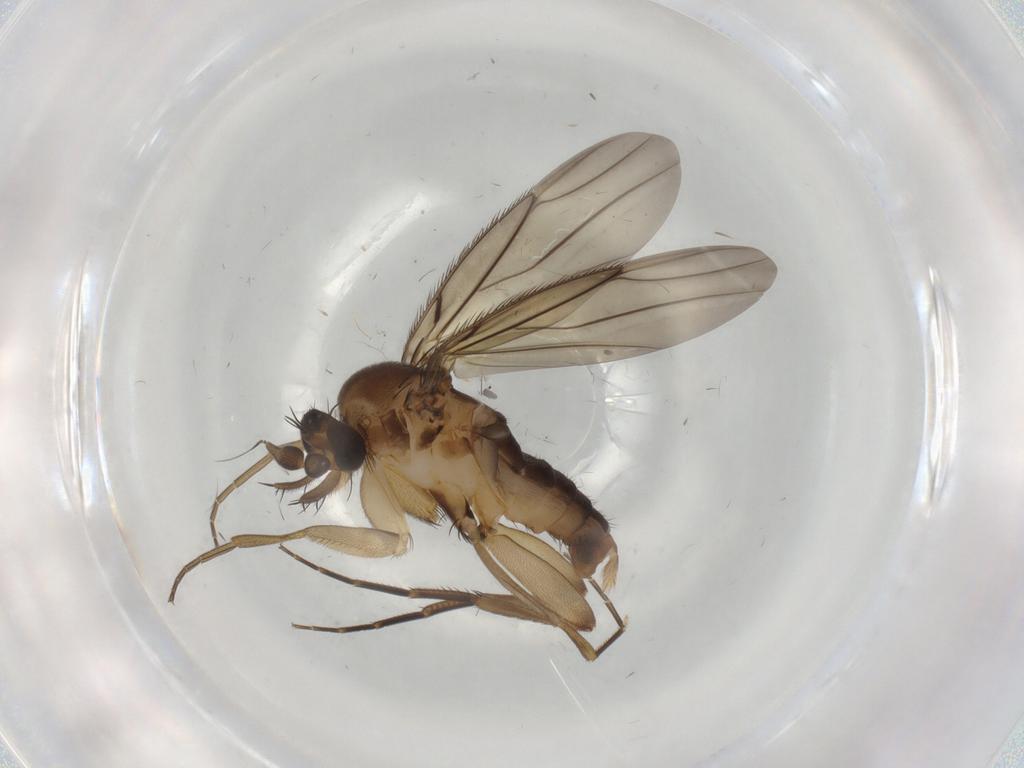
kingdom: Animalia
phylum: Arthropoda
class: Insecta
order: Diptera
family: Phoridae
